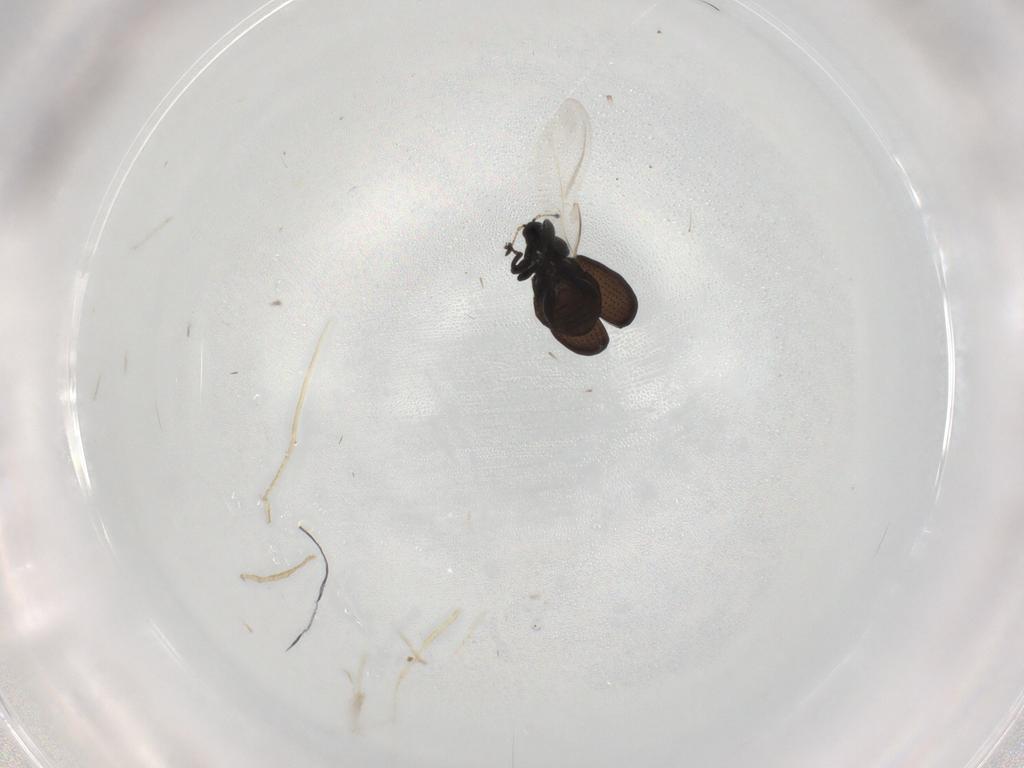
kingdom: Animalia
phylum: Arthropoda
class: Insecta
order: Coleoptera
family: Curculionidae
